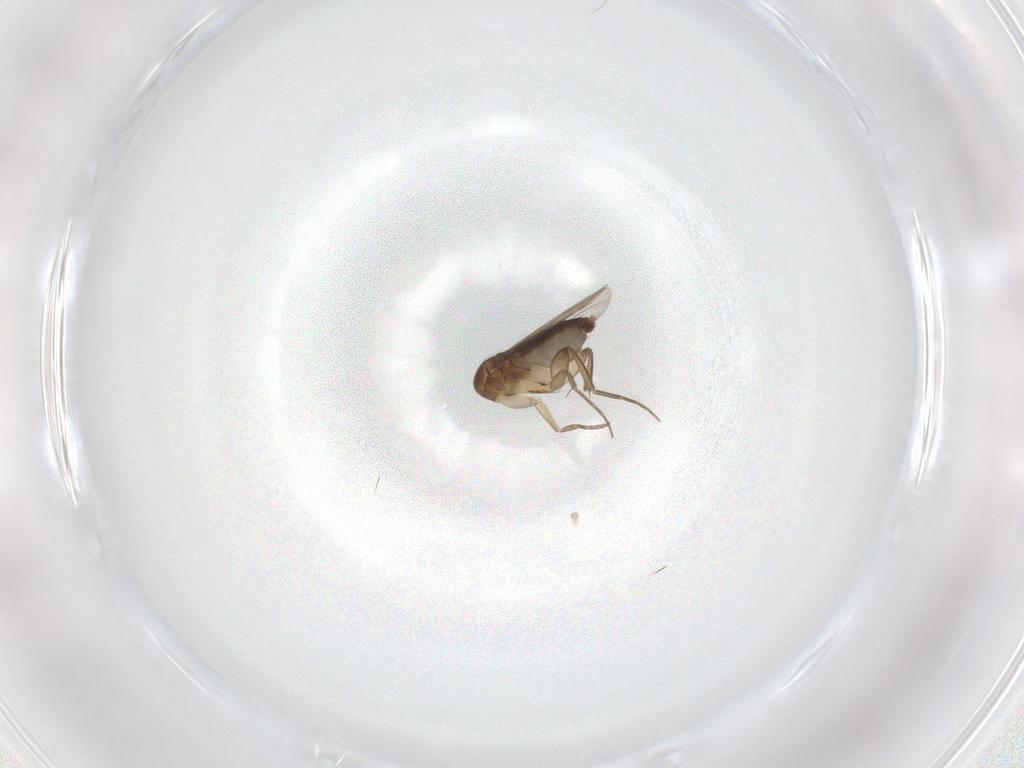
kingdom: Animalia
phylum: Arthropoda
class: Insecta
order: Diptera
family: Phoridae
